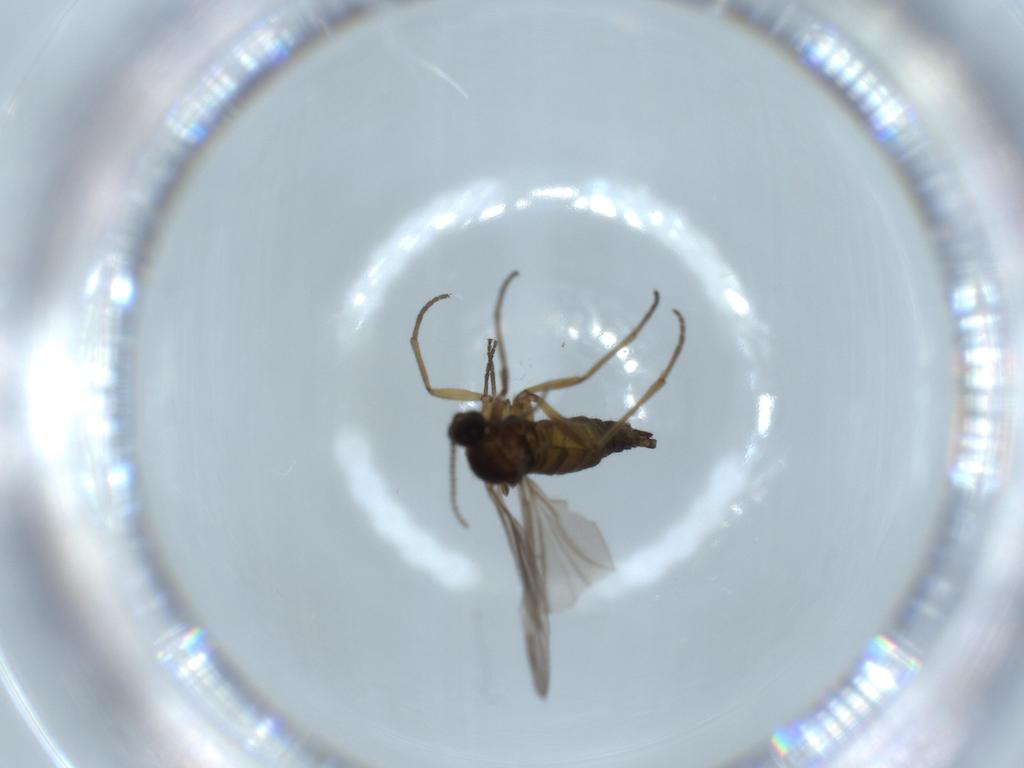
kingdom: Animalia
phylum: Arthropoda
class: Insecta
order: Diptera
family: Sciaridae
